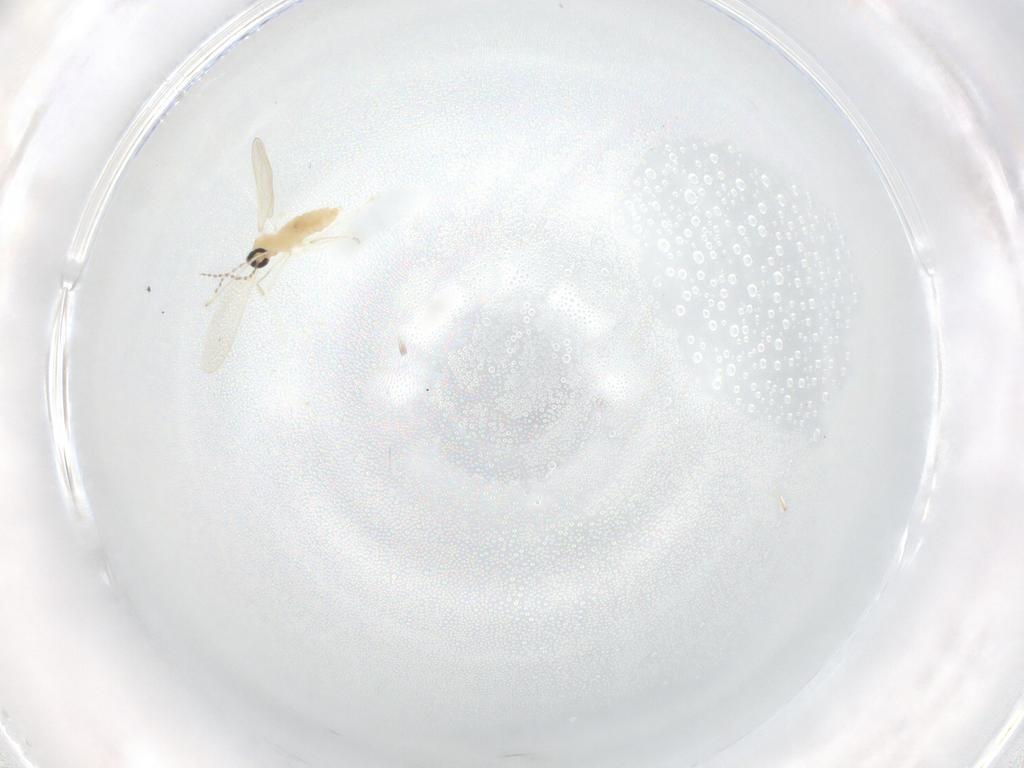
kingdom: Animalia
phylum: Arthropoda
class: Insecta
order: Diptera
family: Cecidomyiidae
